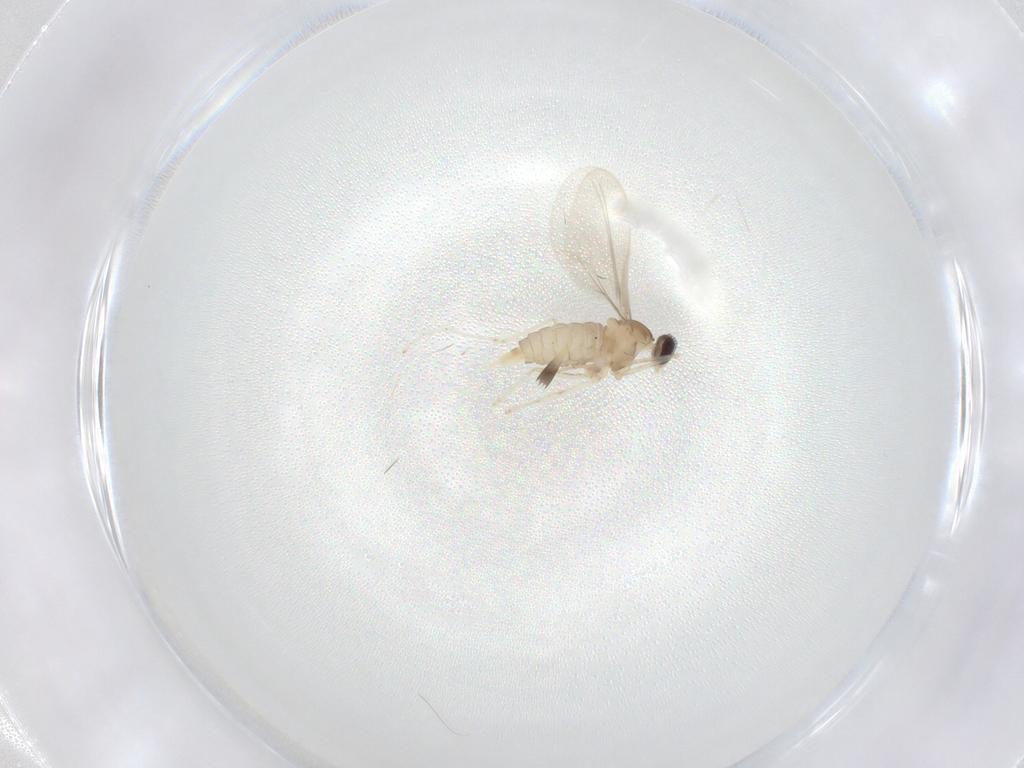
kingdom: Animalia
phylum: Arthropoda
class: Insecta
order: Diptera
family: Cecidomyiidae
